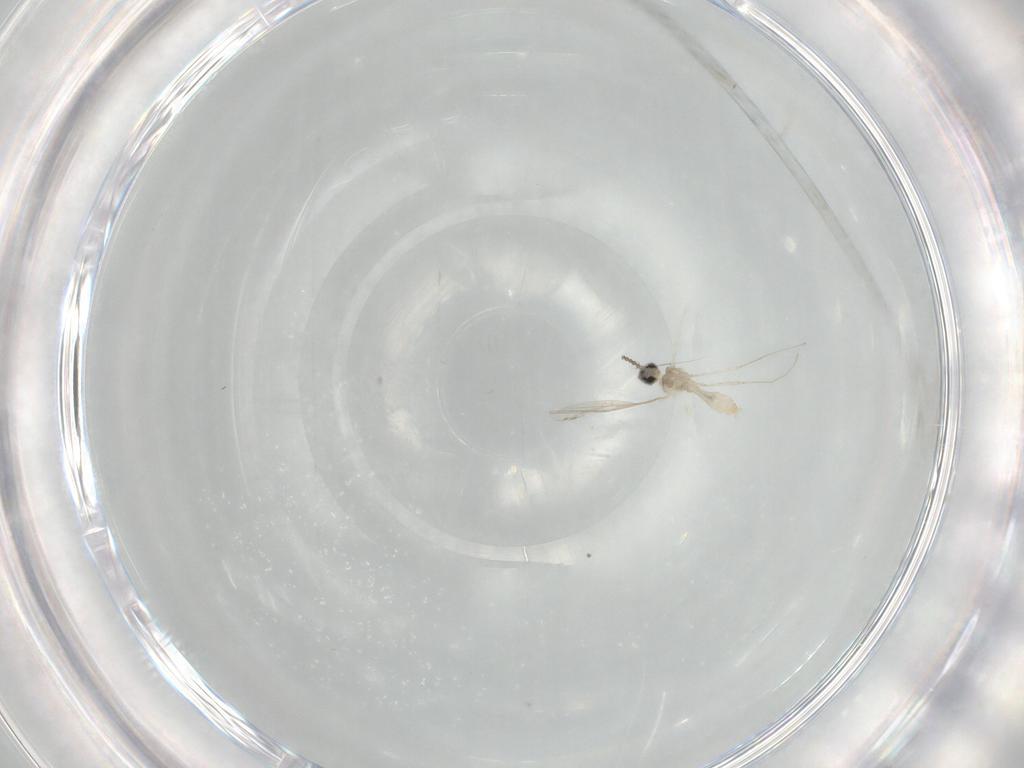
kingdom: Animalia
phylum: Arthropoda
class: Insecta
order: Diptera
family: Cecidomyiidae
